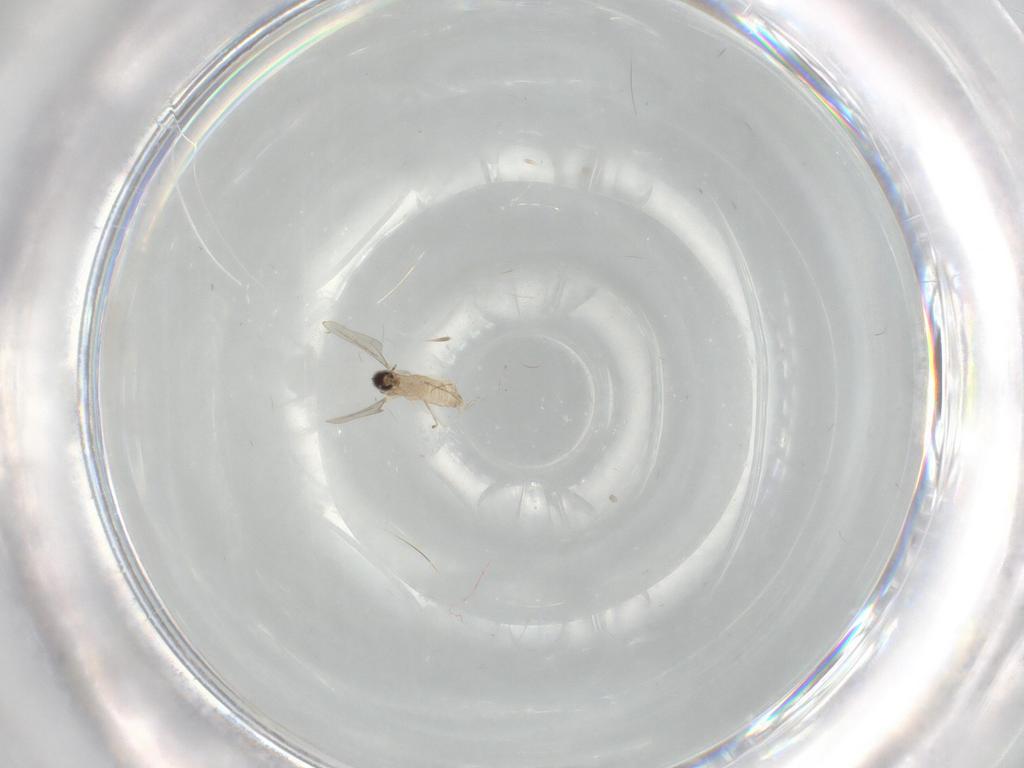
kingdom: Animalia
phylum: Arthropoda
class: Insecta
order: Diptera
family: Cecidomyiidae
